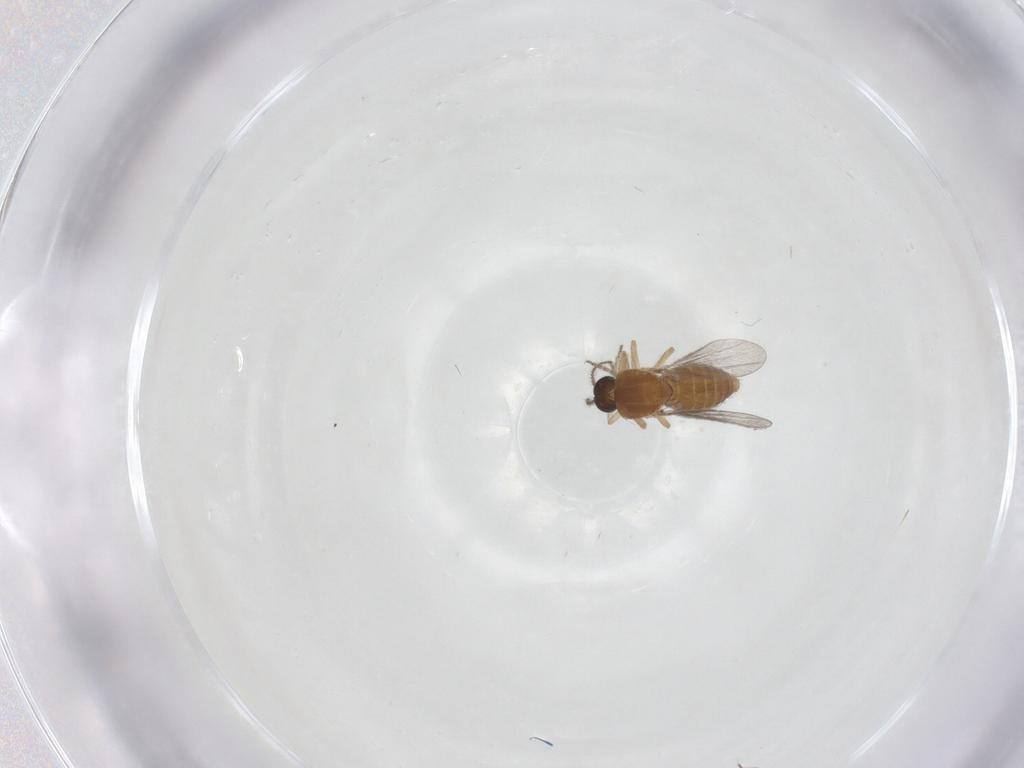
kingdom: Animalia
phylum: Arthropoda
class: Insecta
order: Diptera
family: Ceratopogonidae
